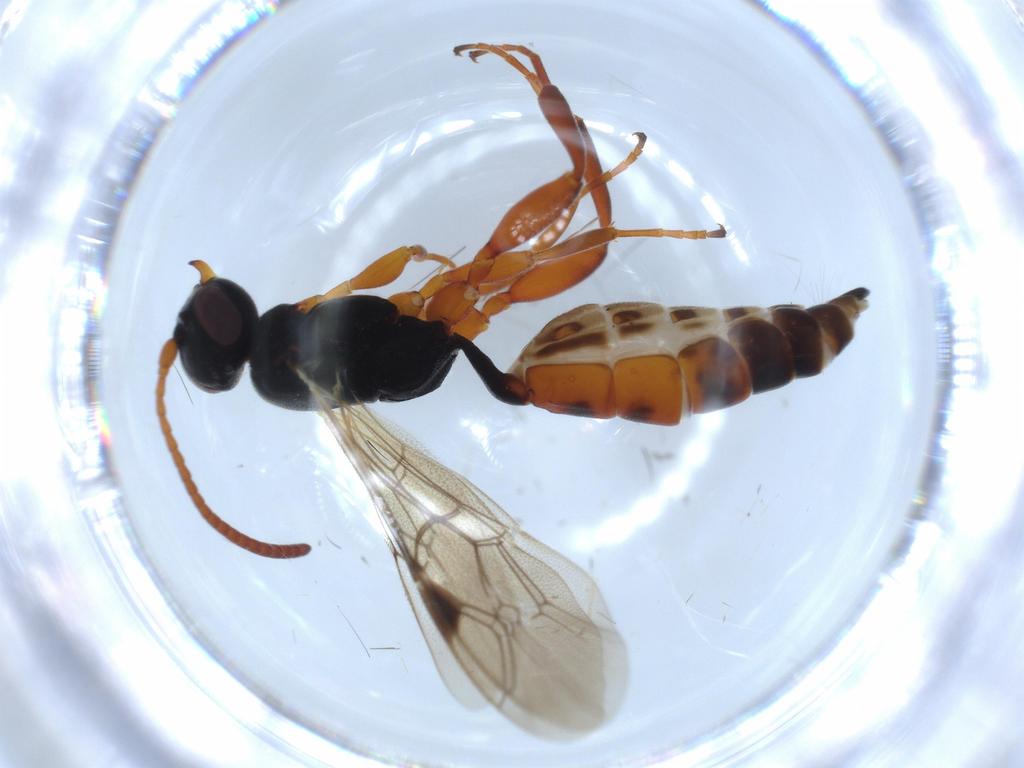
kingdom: Animalia
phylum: Arthropoda
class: Insecta
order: Hymenoptera
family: Ichneumonidae
